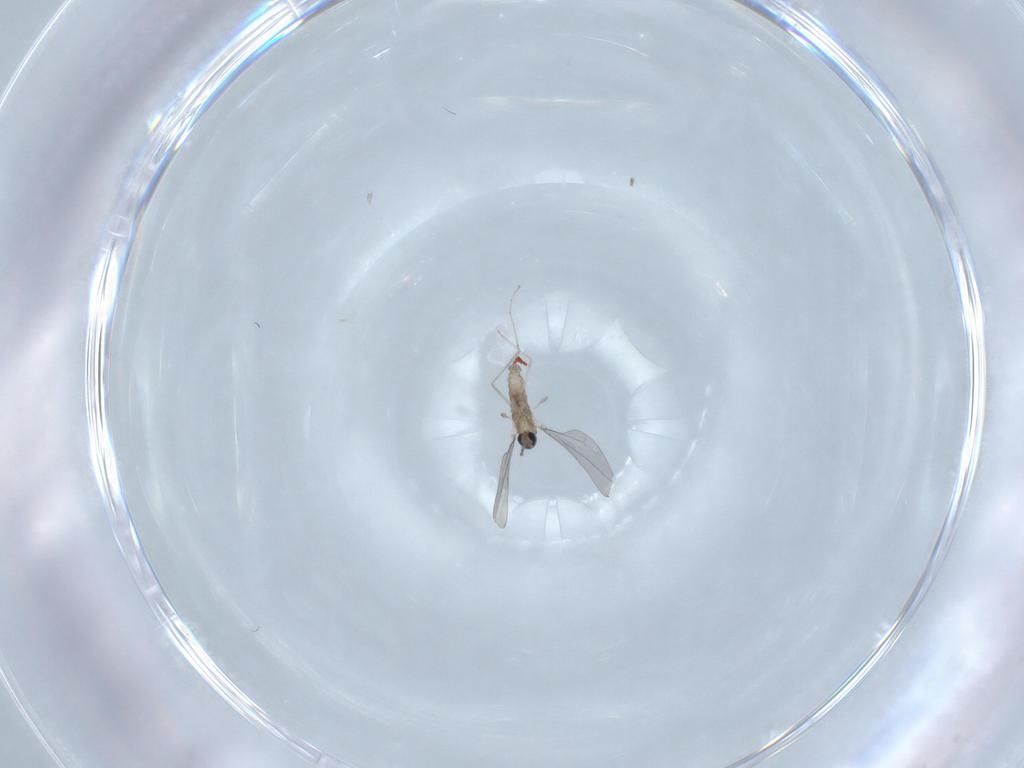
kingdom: Animalia
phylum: Arthropoda
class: Insecta
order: Diptera
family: Cecidomyiidae
